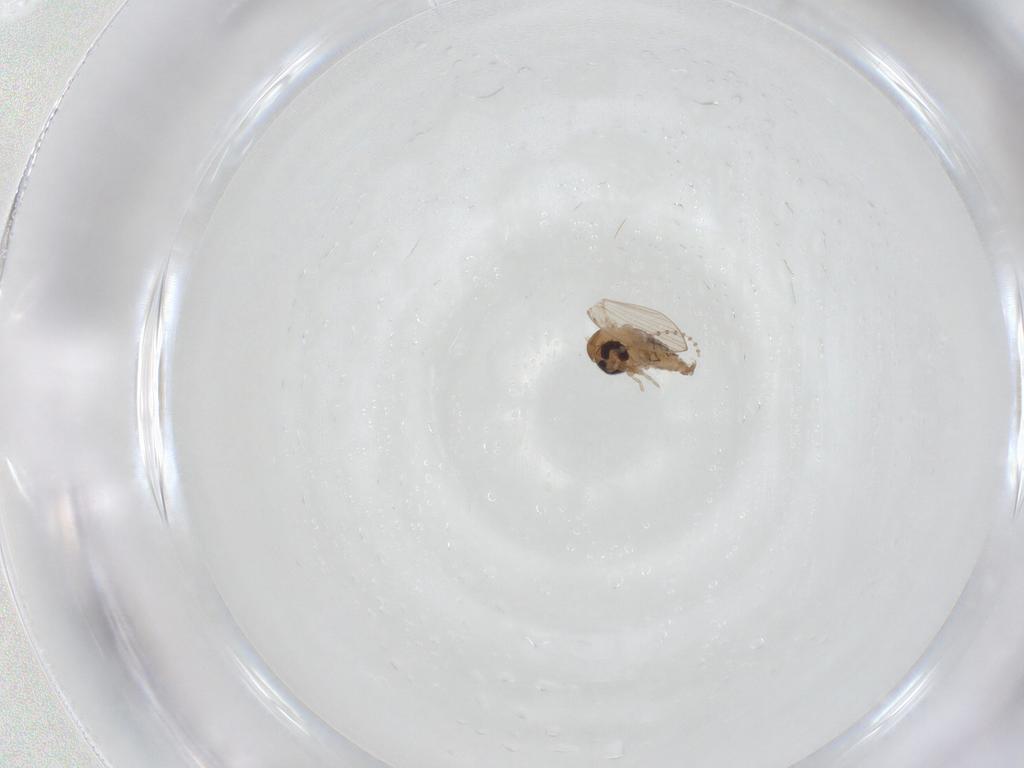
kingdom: Animalia
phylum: Arthropoda
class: Insecta
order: Diptera
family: Psychodidae
